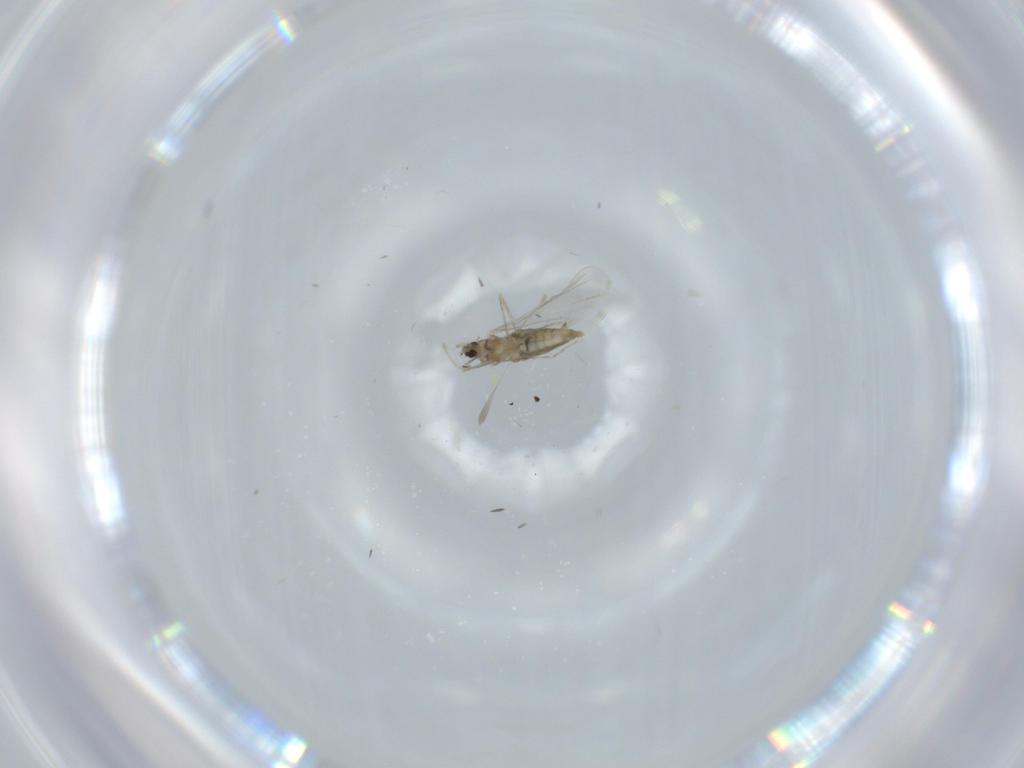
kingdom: Animalia
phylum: Arthropoda
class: Insecta
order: Diptera
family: Cecidomyiidae
